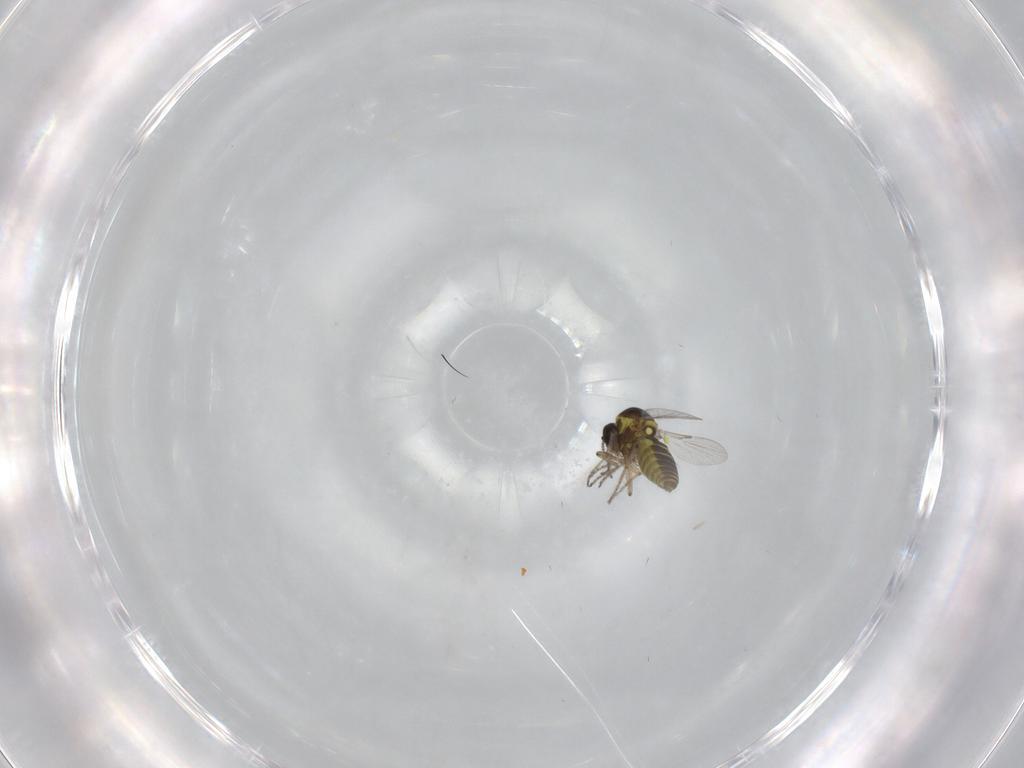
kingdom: Animalia
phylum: Arthropoda
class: Insecta
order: Diptera
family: Ceratopogonidae
